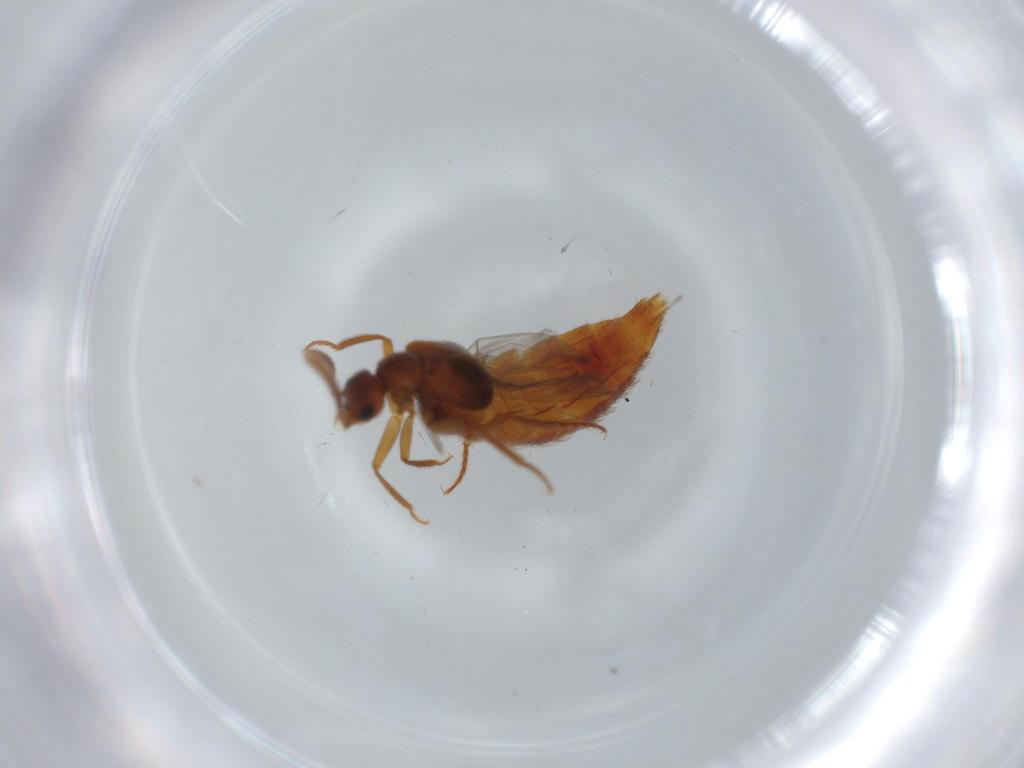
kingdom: Animalia
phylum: Arthropoda
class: Insecta
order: Coleoptera
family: Staphylinidae
